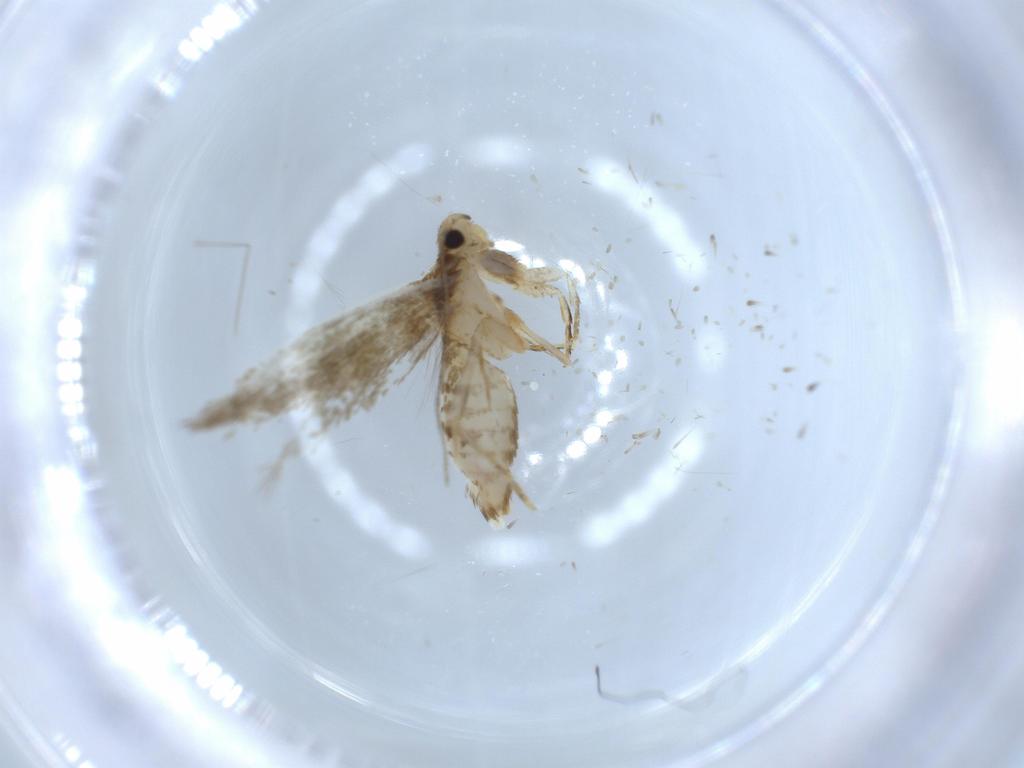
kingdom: Animalia
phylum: Arthropoda
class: Insecta
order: Lepidoptera
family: Tineidae
